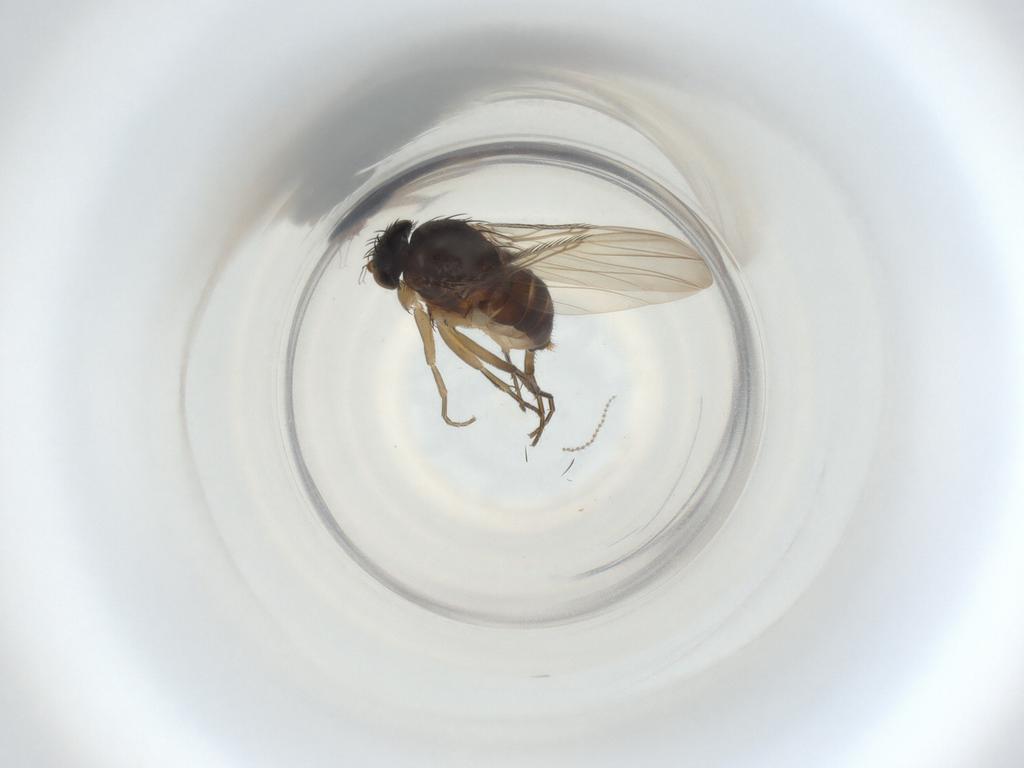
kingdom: Animalia
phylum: Arthropoda
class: Insecta
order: Diptera
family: Phoridae
